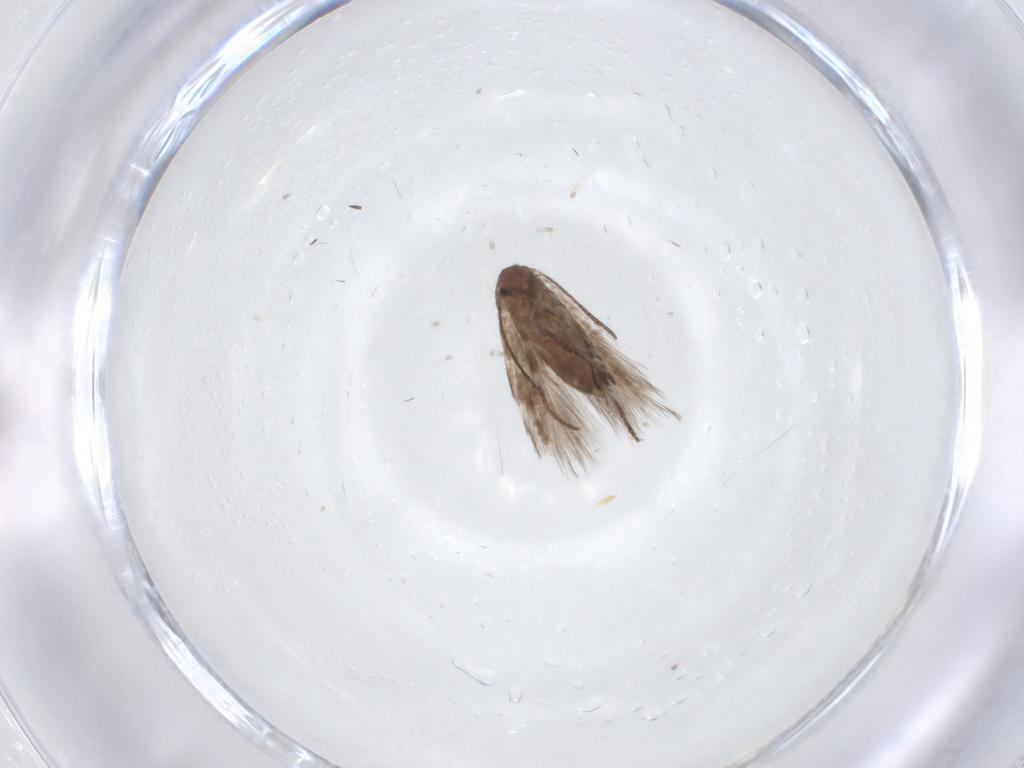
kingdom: Animalia
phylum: Arthropoda
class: Insecta
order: Lepidoptera
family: Lyonetiidae
